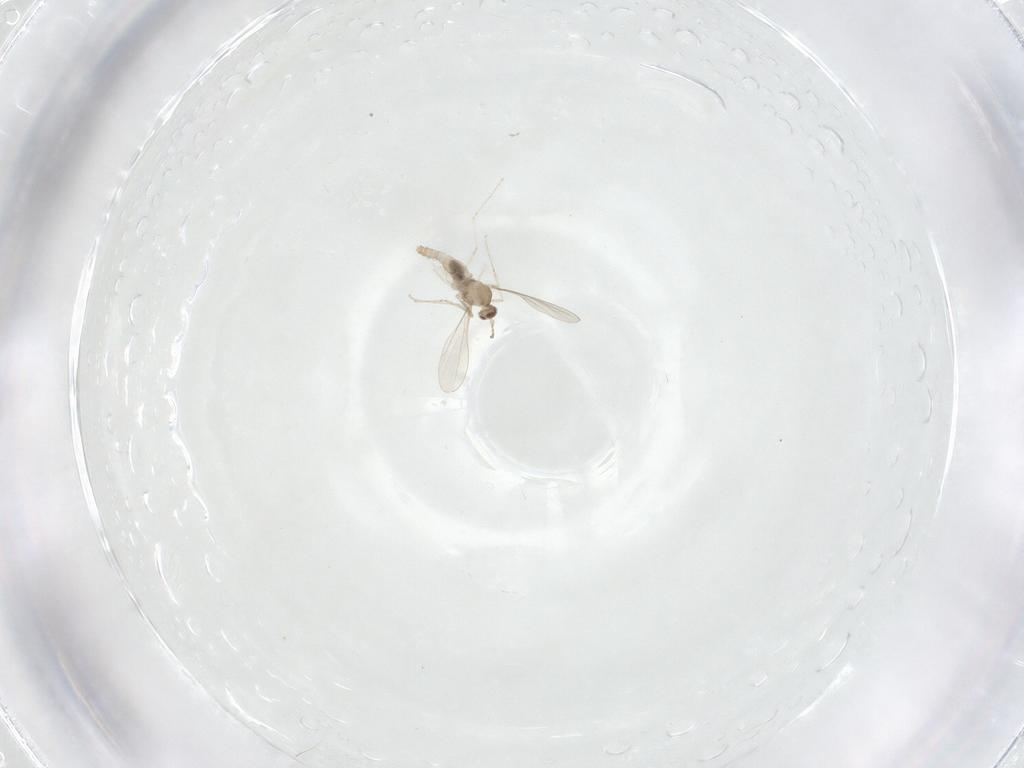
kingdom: Animalia
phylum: Arthropoda
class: Insecta
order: Diptera
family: Cecidomyiidae
